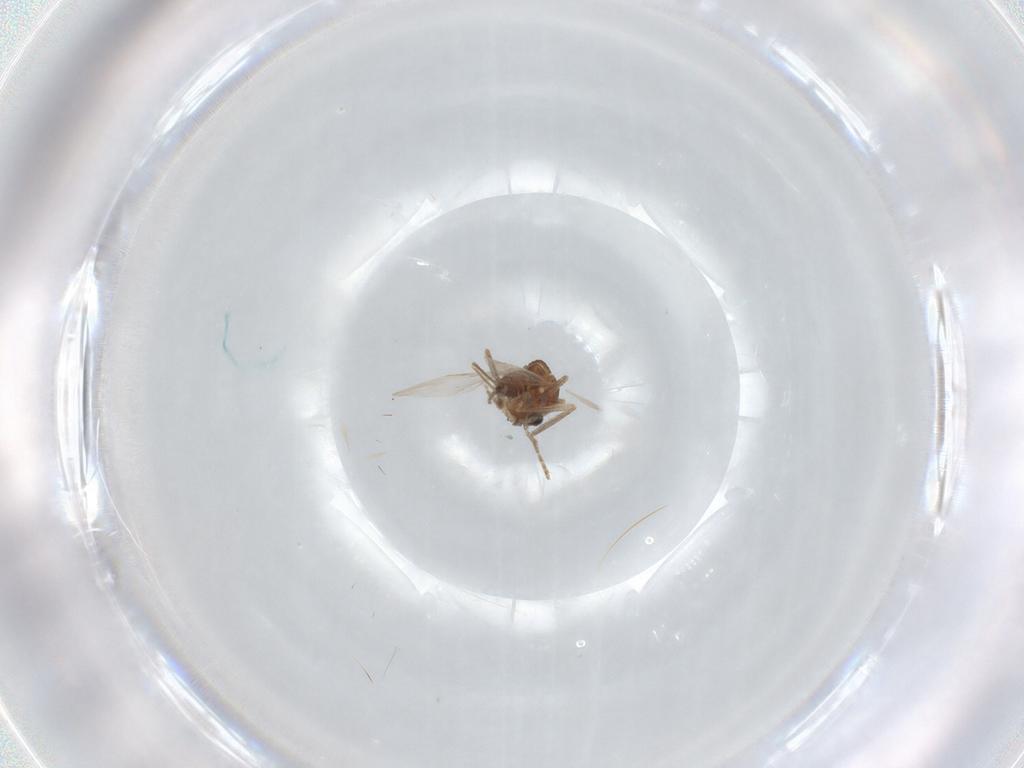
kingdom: Animalia
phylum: Arthropoda
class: Insecta
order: Diptera
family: Ceratopogonidae
